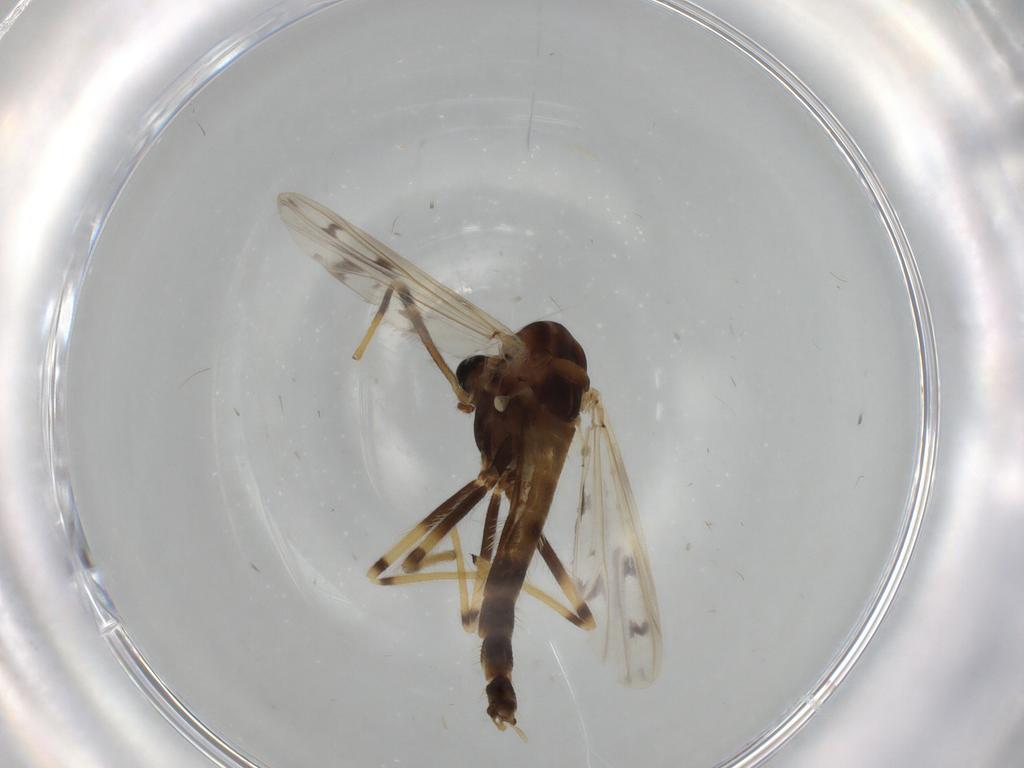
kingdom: Animalia
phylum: Arthropoda
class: Insecta
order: Diptera
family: Chironomidae
